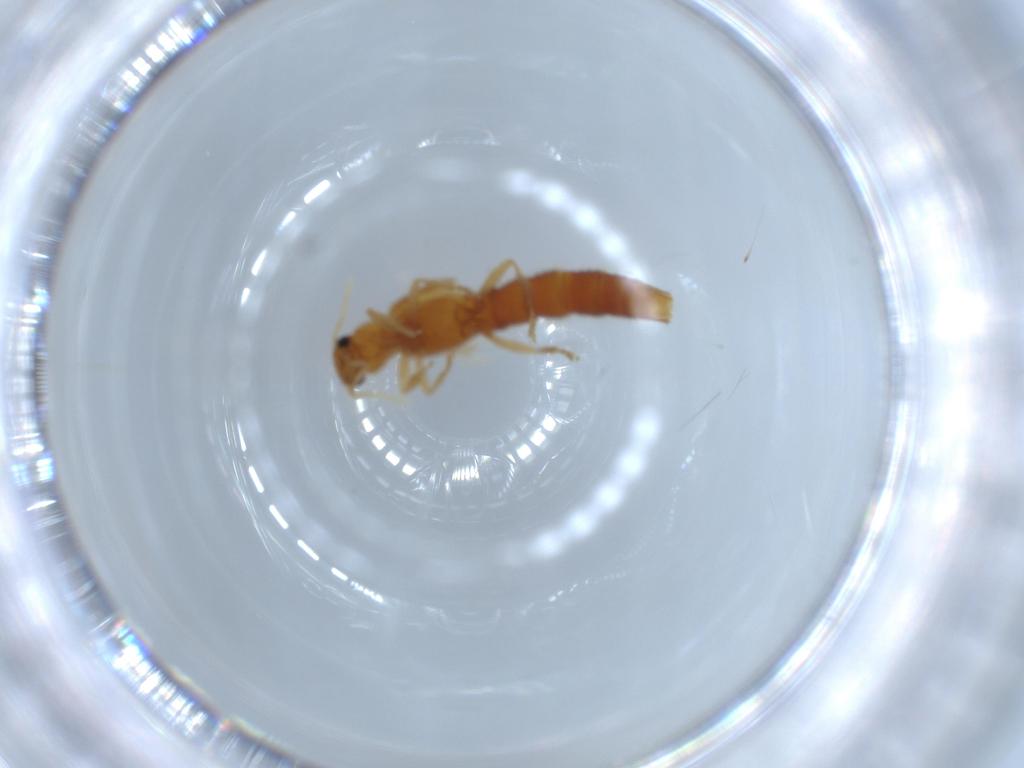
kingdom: Animalia
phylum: Arthropoda
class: Insecta
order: Coleoptera
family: Staphylinidae
